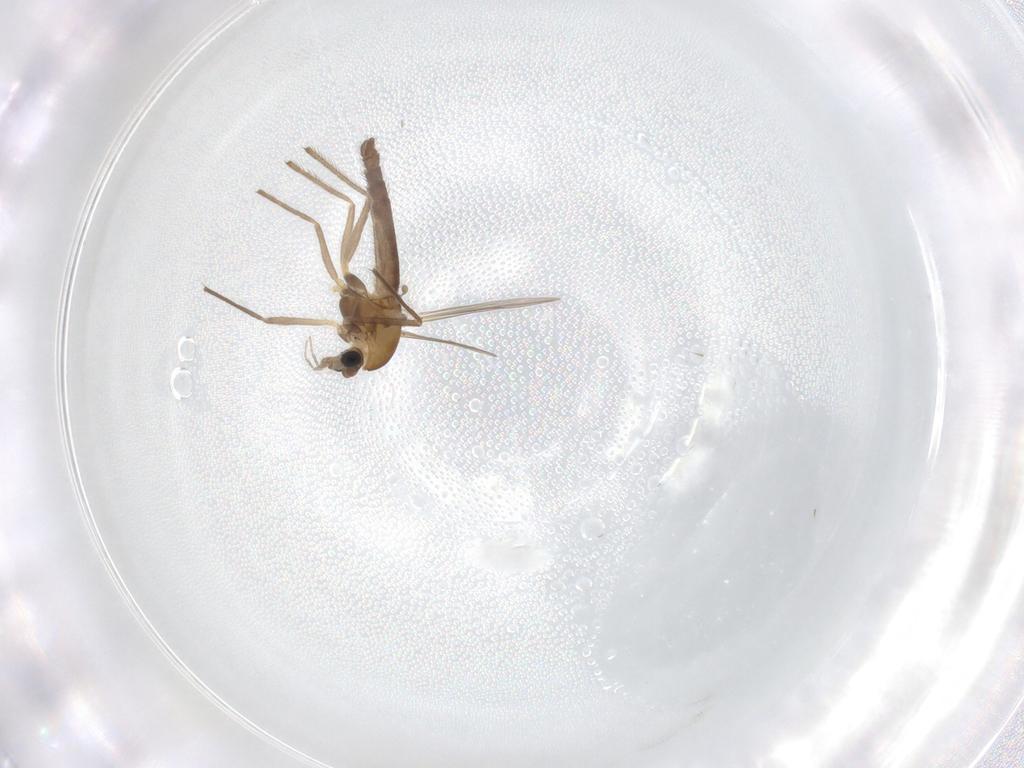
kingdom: Animalia
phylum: Arthropoda
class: Insecta
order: Diptera
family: Chironomidae
